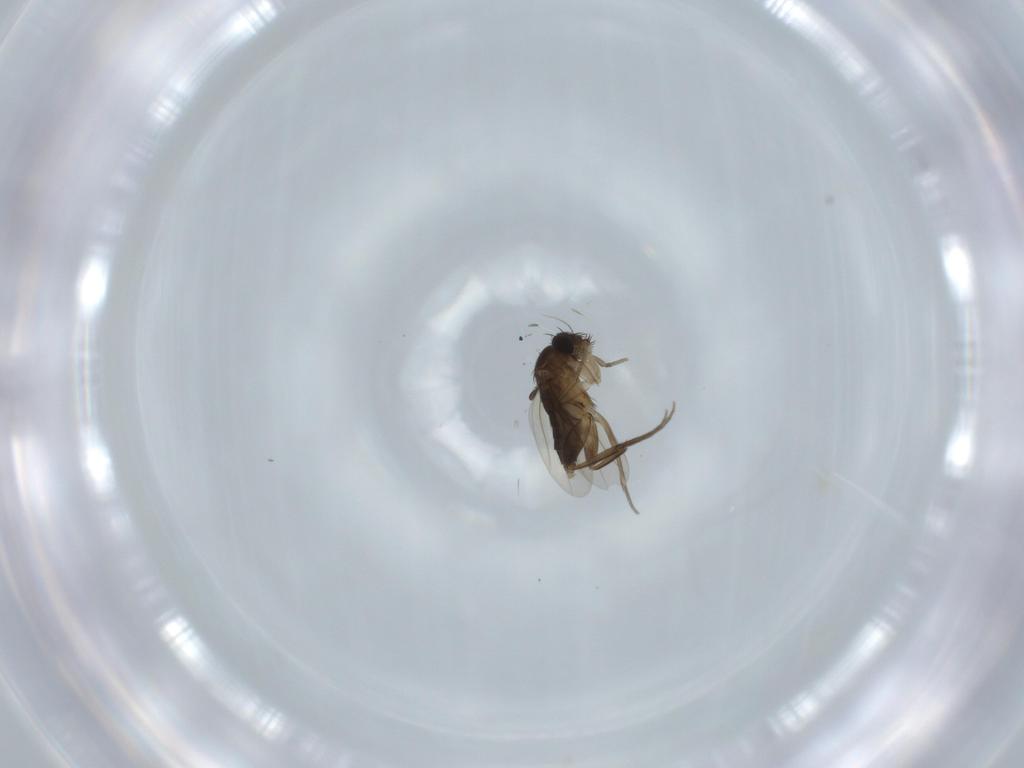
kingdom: Animalia
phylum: Arthropoda
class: Insecta
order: Diptera
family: Phoridae
